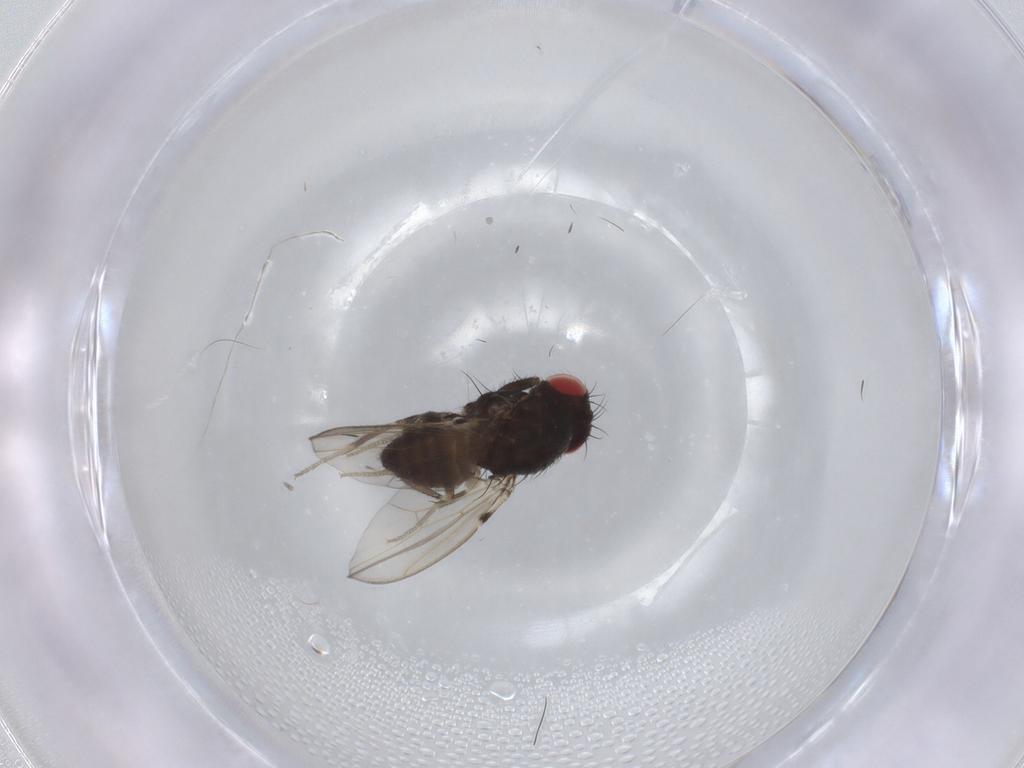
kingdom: Animalia
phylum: Arthropoda
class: Insecta
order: Diptera
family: Drosophilidae
